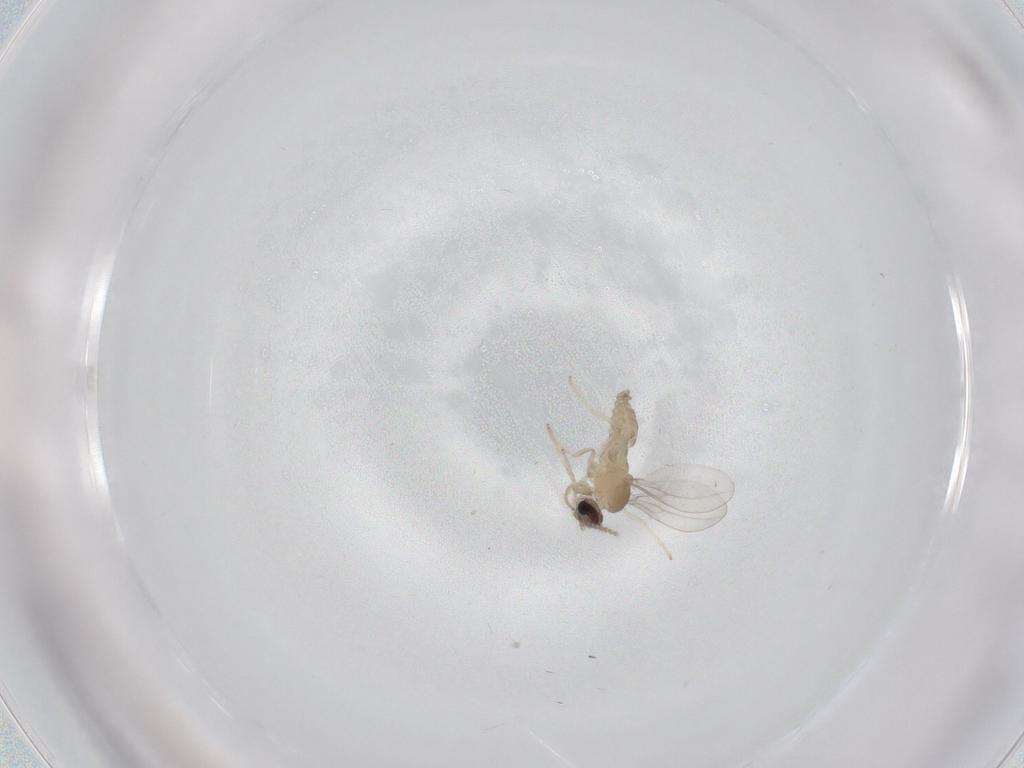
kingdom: Animalia
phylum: Arthropoda
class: Insecta
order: Diptera
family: Cecidomyiidae
